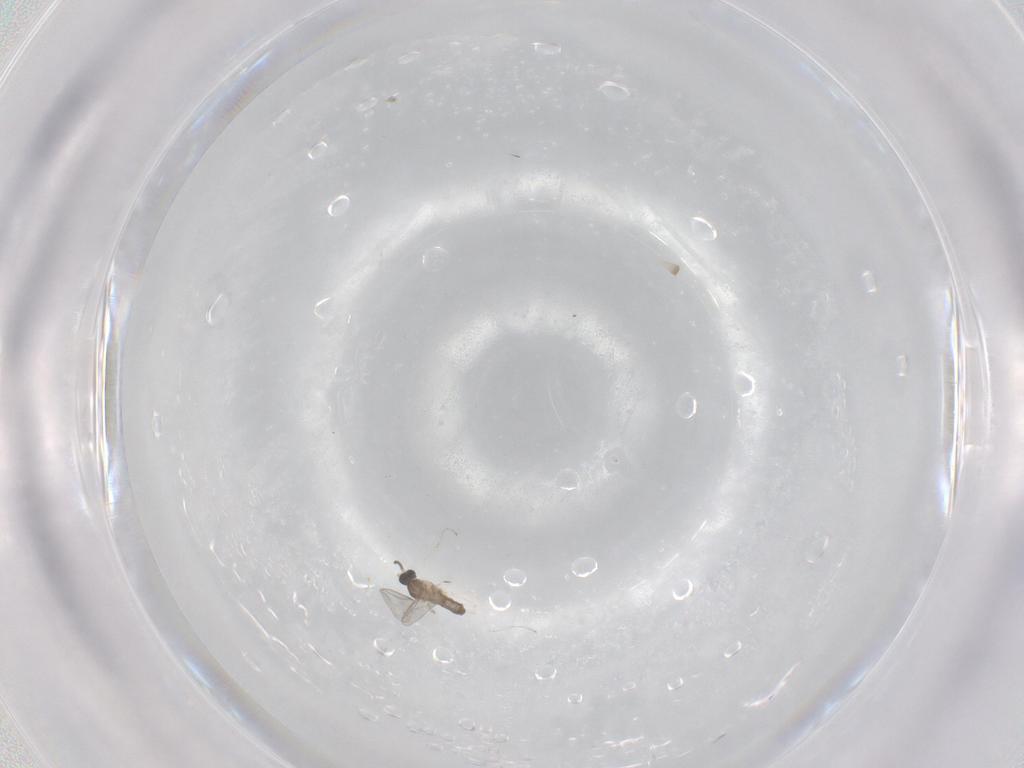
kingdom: Animalia
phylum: Arthropoda
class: Insecta
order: Diptera
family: Cecidomyiidae
